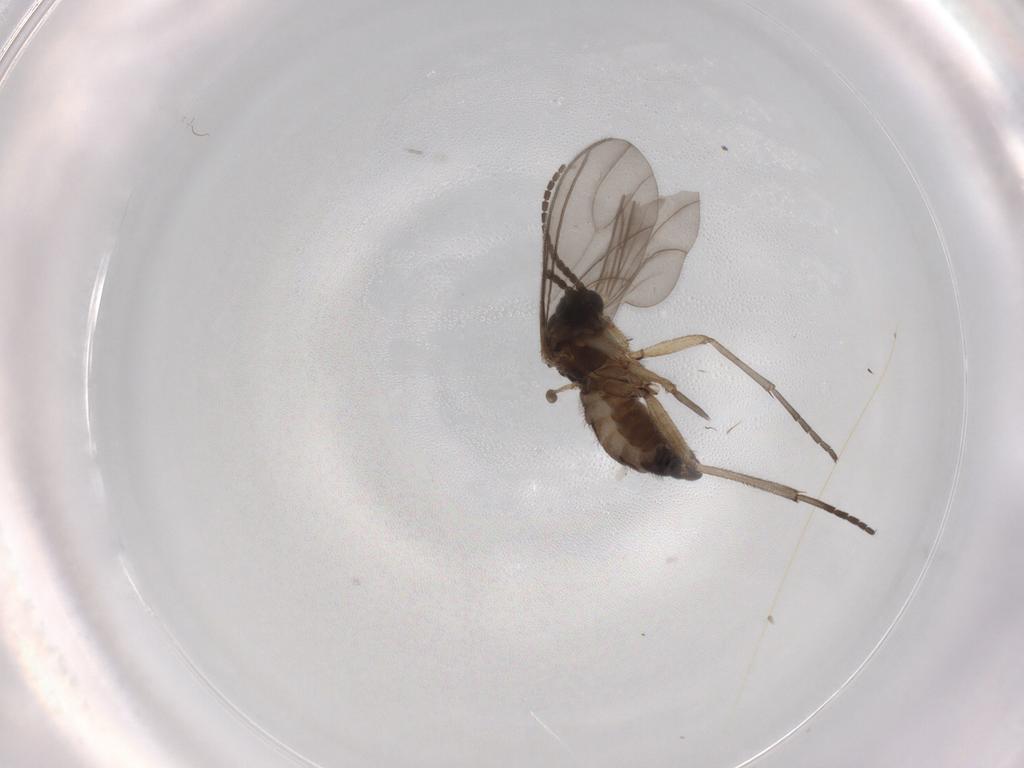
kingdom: Animalia
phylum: Arthropoda
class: Insecta
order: Diptera
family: Sciaridae
